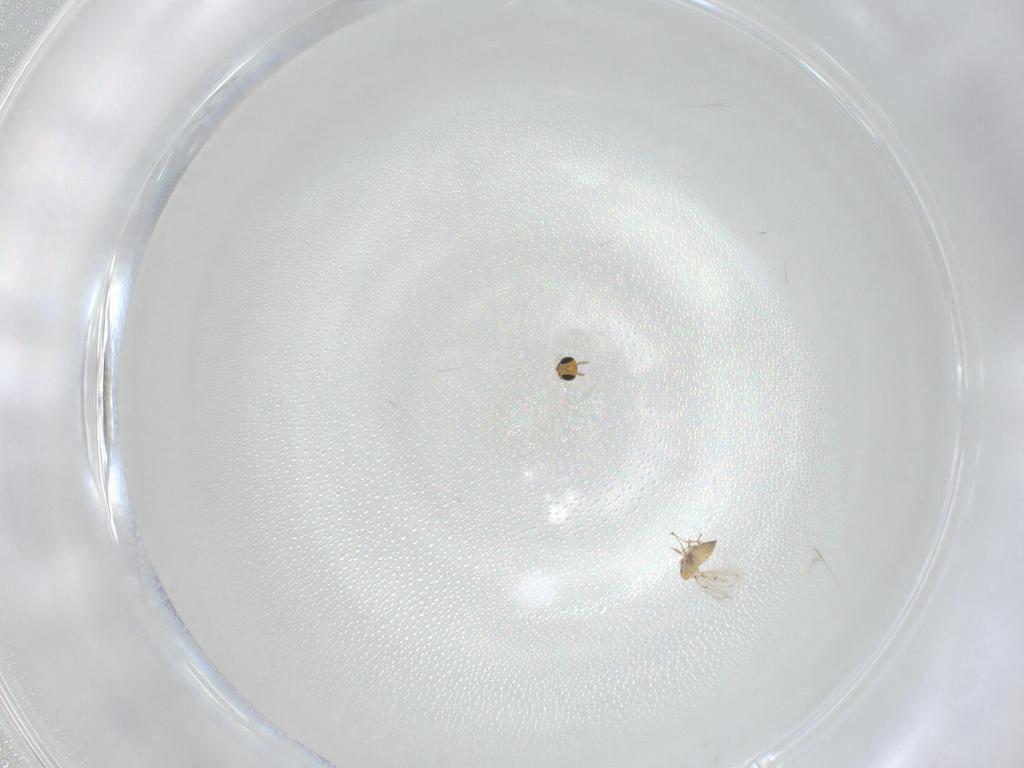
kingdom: Animalia
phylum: Arthropoda
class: Insecta
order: Hymenoptera
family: Trichogrammatidae
